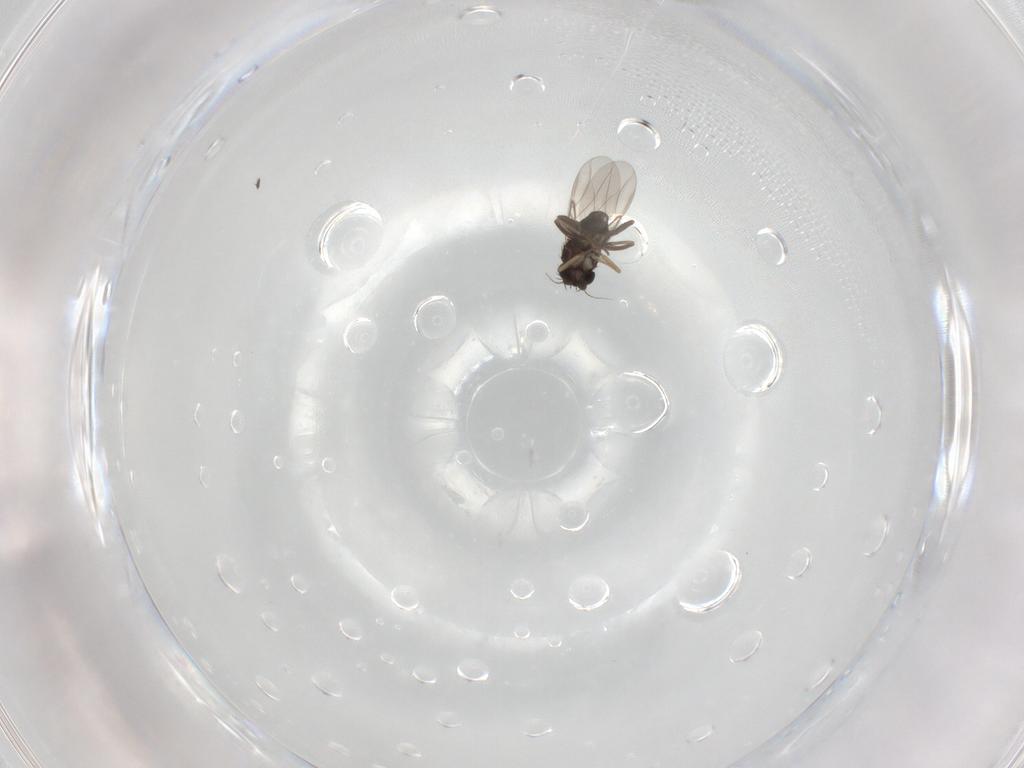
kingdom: Animalia
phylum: Arthropoda
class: Insecta
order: Diptera
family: Phoridae
